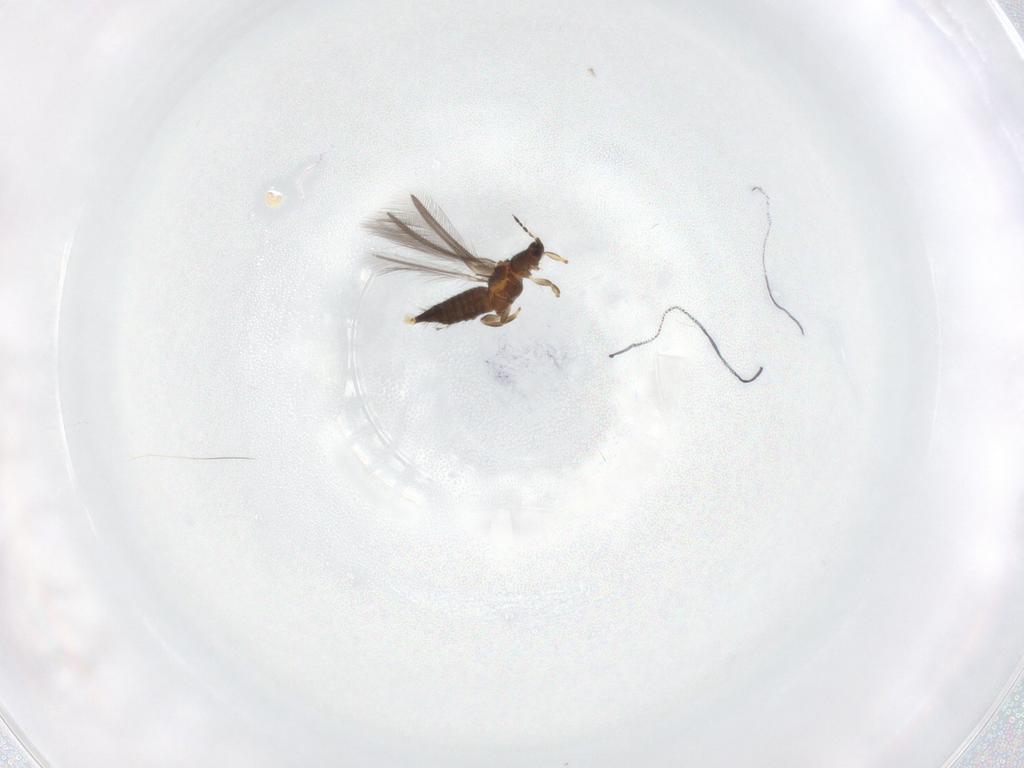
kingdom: Animalia
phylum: Arthropoda
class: Insecta
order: Thysanoptera
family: Thripidae
